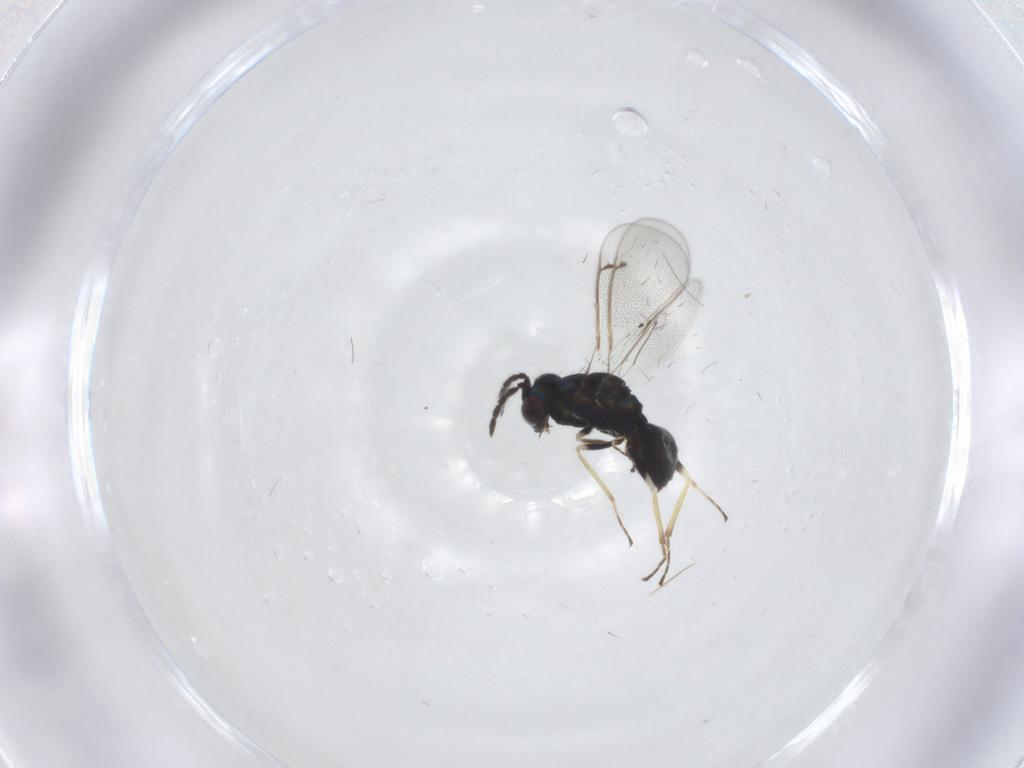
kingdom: Animalia
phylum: Arthropoda
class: Insecta
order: Hymenoptera
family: Eulophidae
